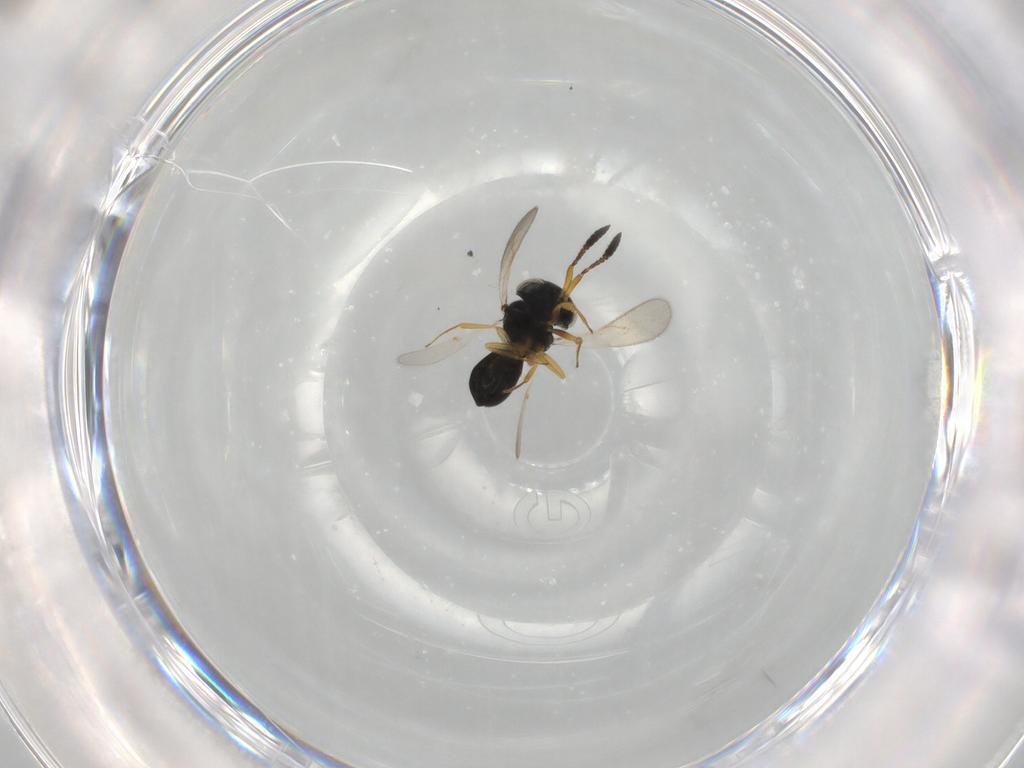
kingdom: Animalia
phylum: Arthropoda
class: Insecta
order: Hymenoptera
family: Scelionidae
